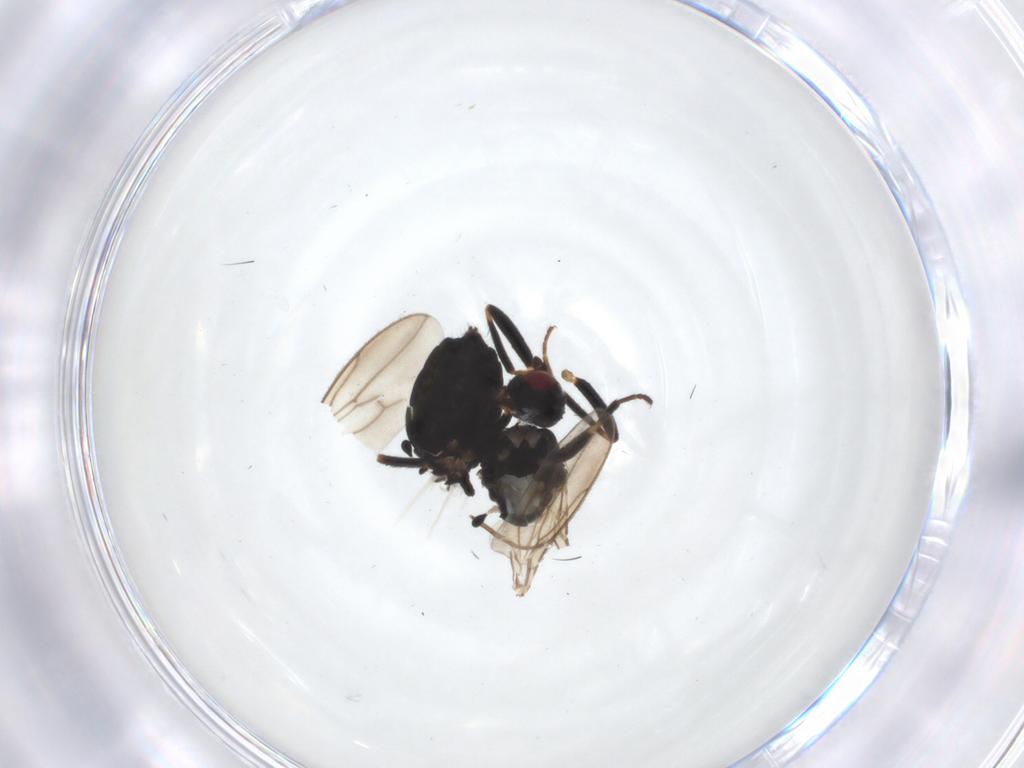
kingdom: Animalia
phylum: Arthropoda
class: Insecta
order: Diptera
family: Sphaeroceridae
